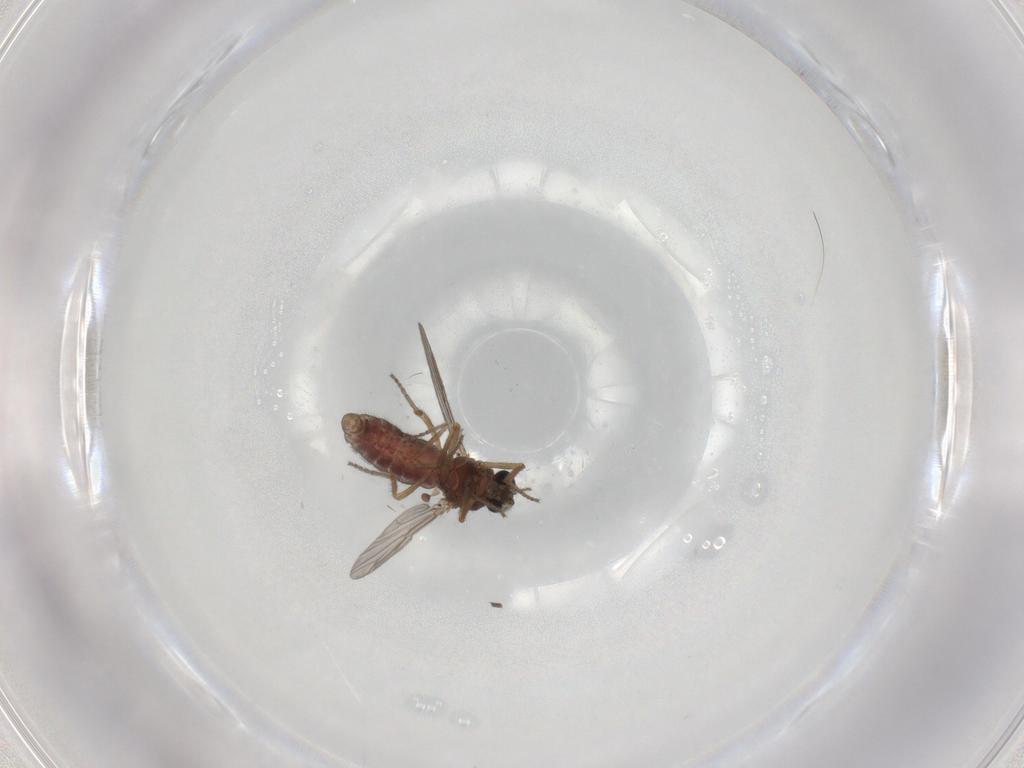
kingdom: Animalia
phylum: Arthropoda
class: Insecta
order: Diptera
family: Ceratopogonidae
